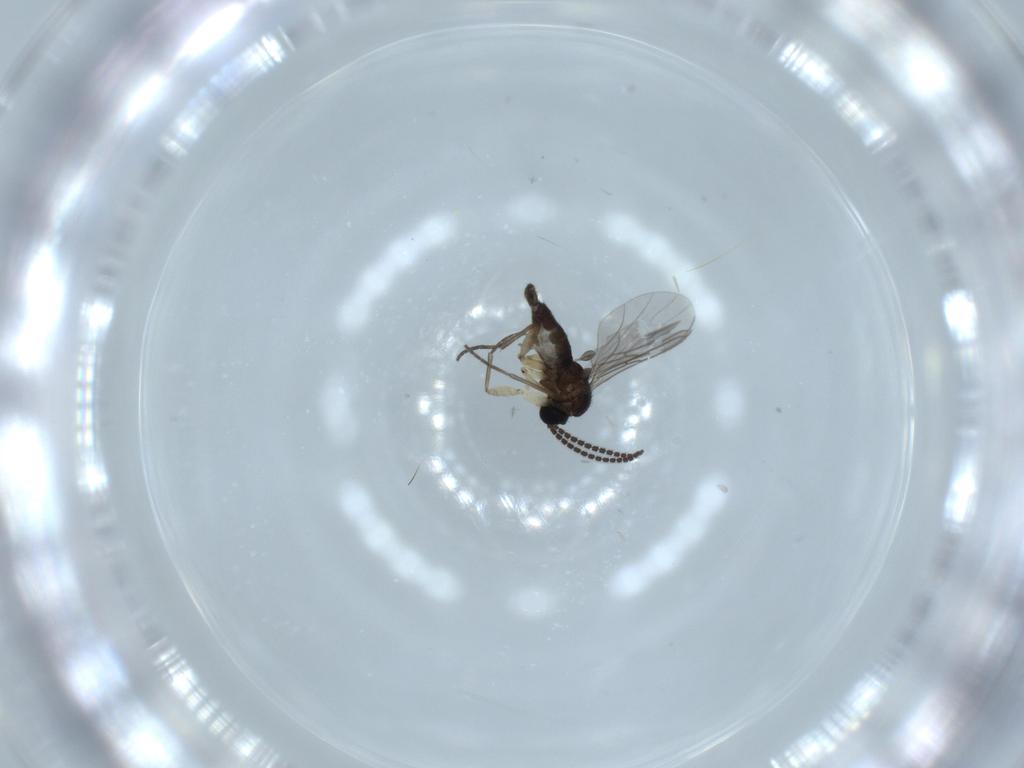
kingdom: Animalia
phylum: Arthropoda
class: Insecta
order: Diptera
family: Sciaridae
